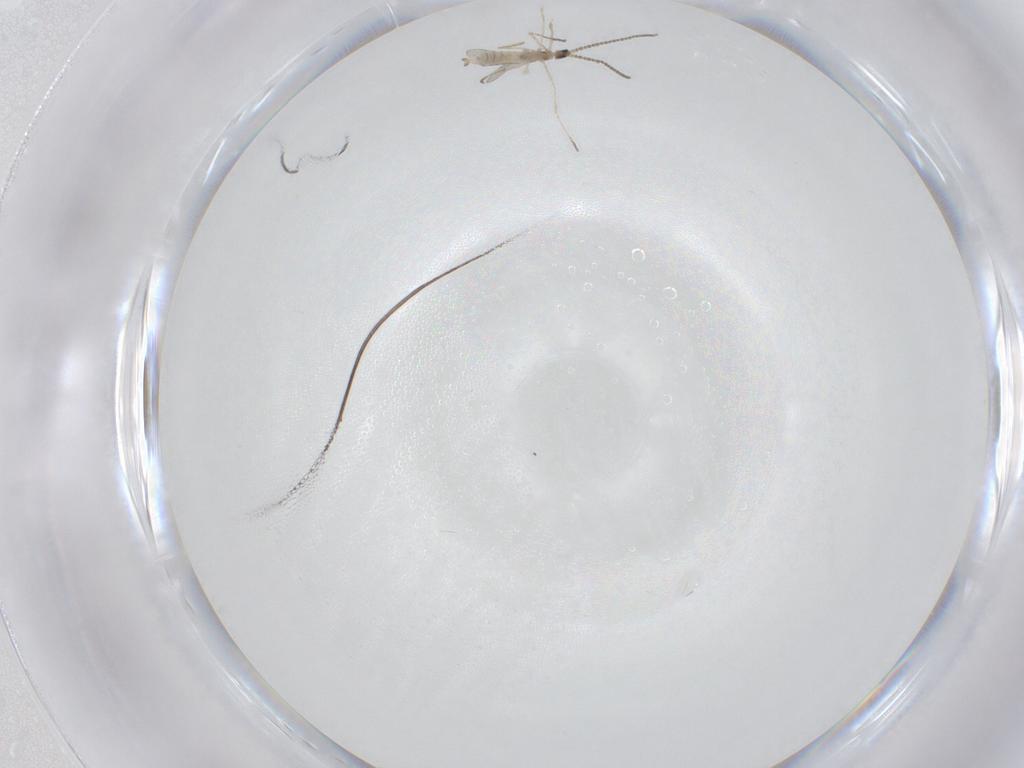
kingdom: Animalia
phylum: Arthropoda
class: Insecta
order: Diptera
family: Cecidomyiidae
